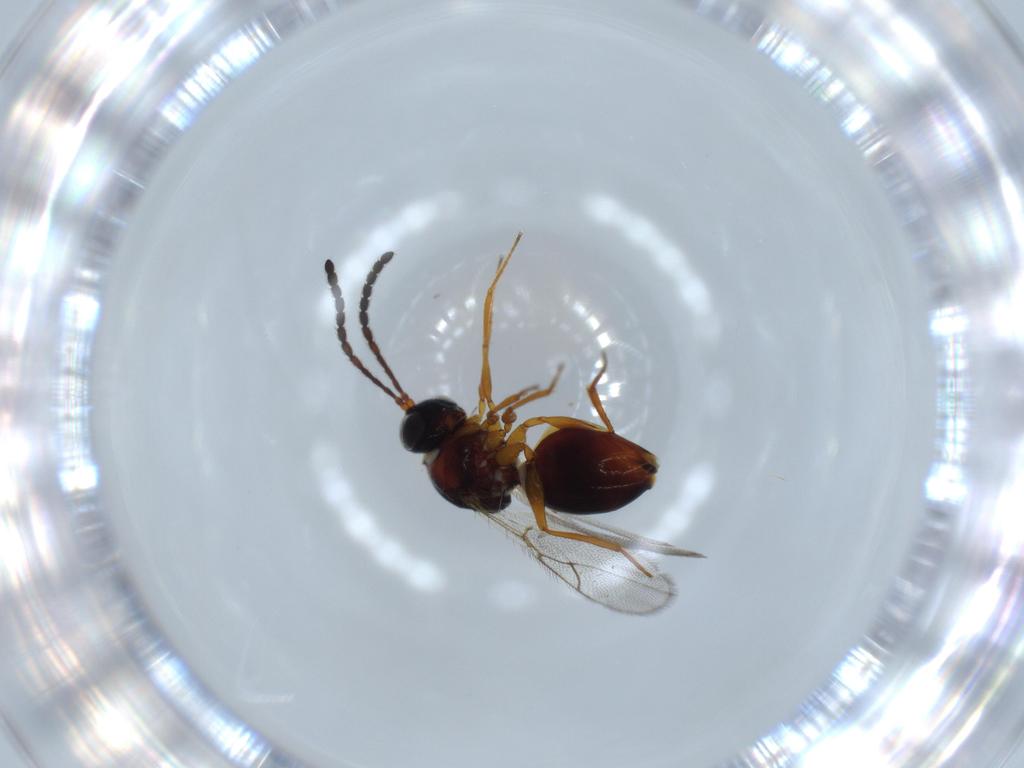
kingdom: Animalia
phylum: Arthropoda
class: Insecta
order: Hymenoptera
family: Figitidae
